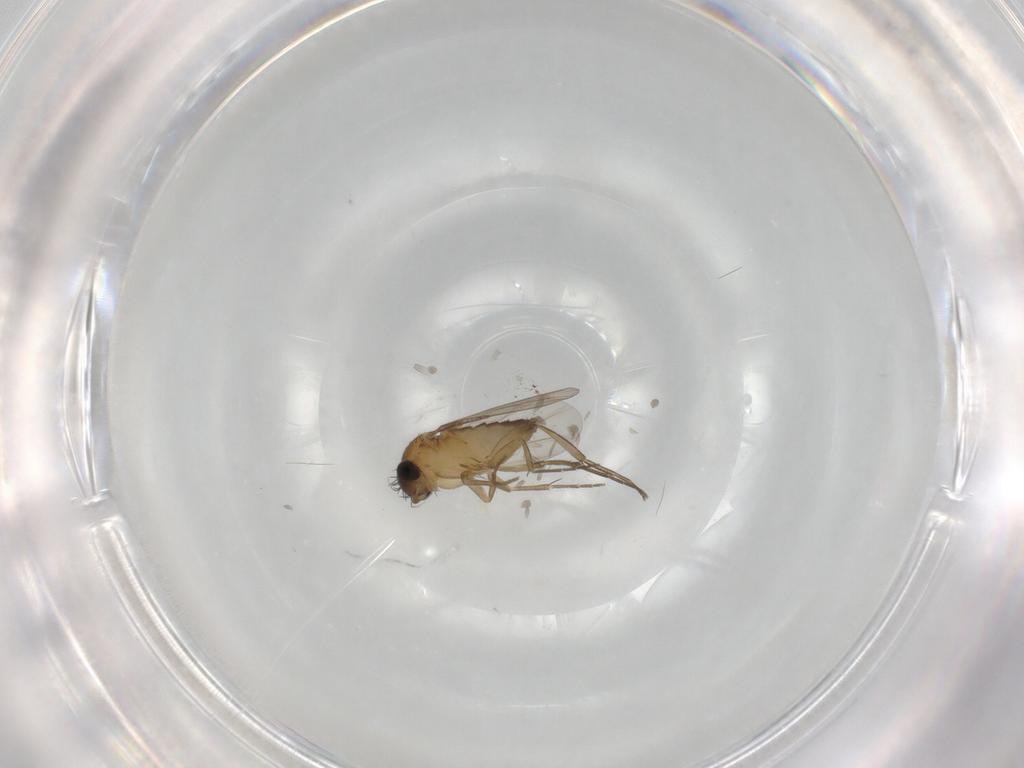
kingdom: Animalia
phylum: Arthropoda
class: Insecta
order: Diptera
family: Phoridae
